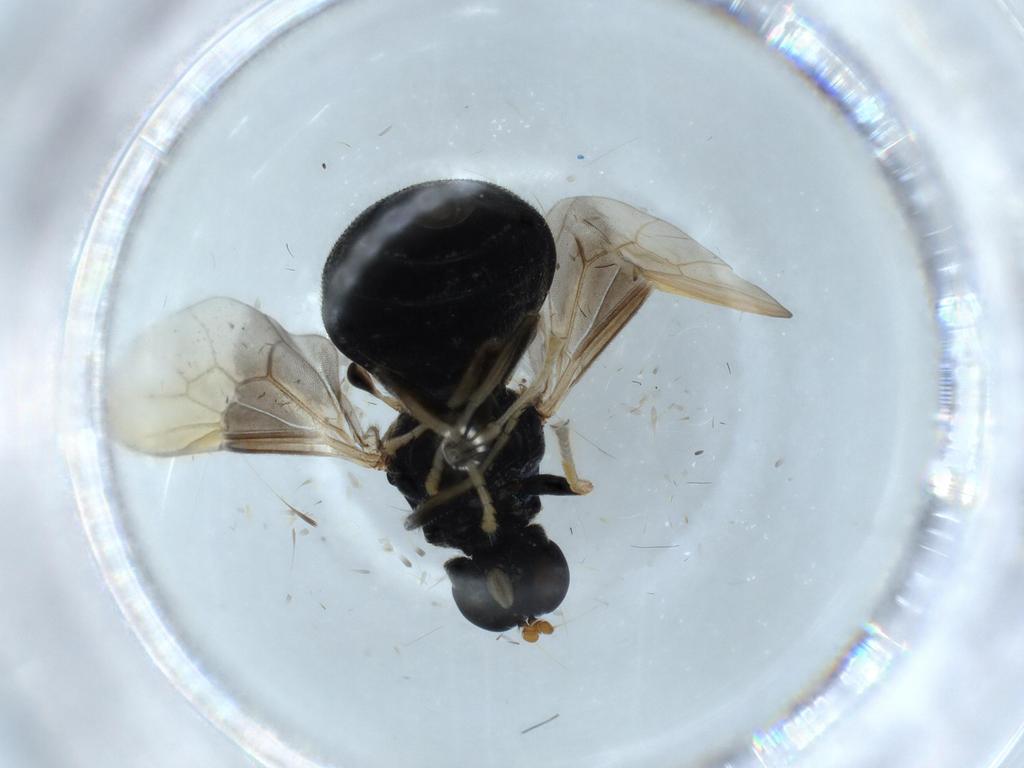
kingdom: Animalia
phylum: Arthropoda
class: Insecta
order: Diptera
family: Stratiomyidae
